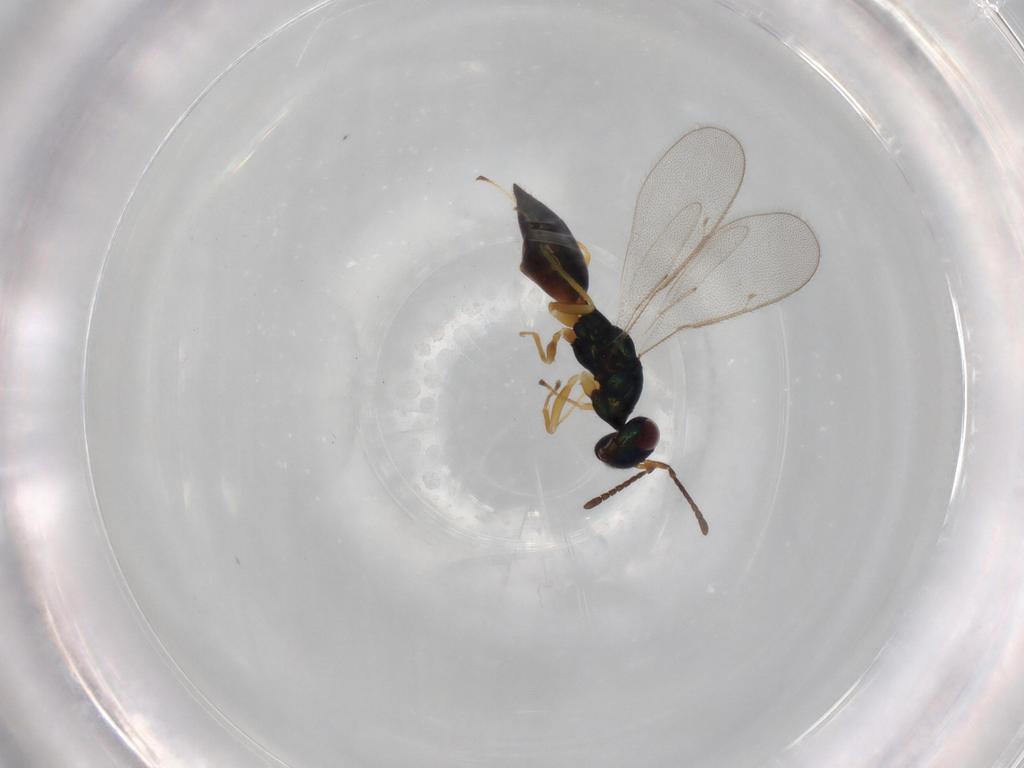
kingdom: Animalia
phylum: Arthropoda
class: Insecta
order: Hymenoptera
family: Pteromalidae
